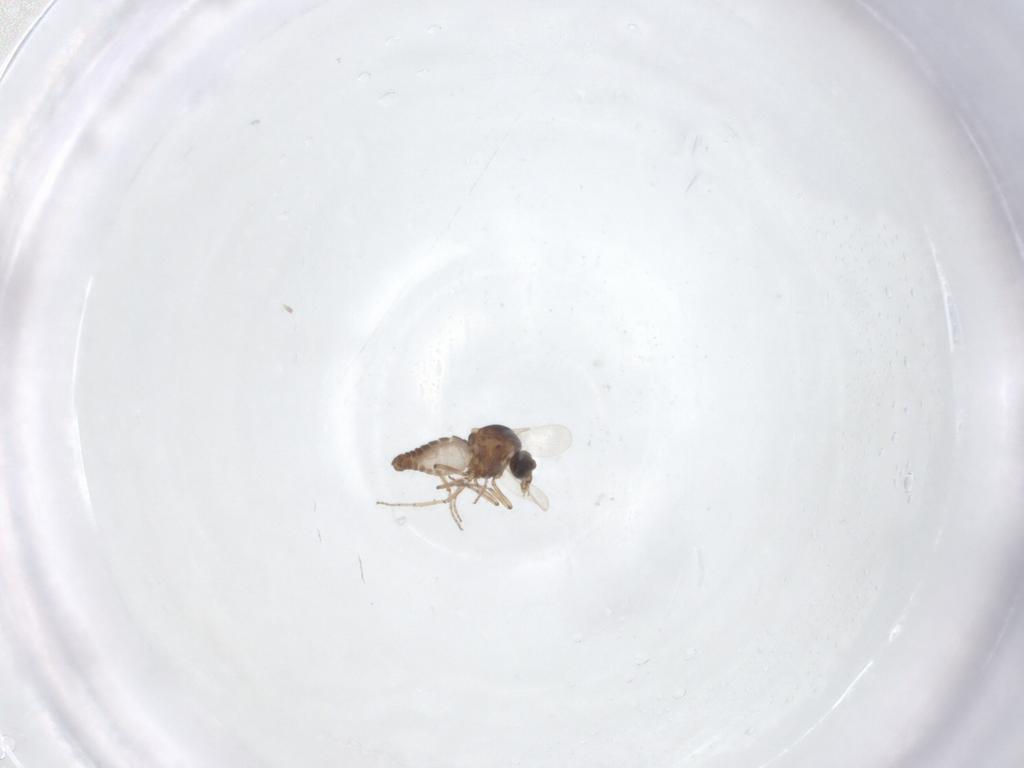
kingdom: Animalia
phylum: Arthropoda
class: Insecta
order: Diptera
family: Ceratopogonidae
